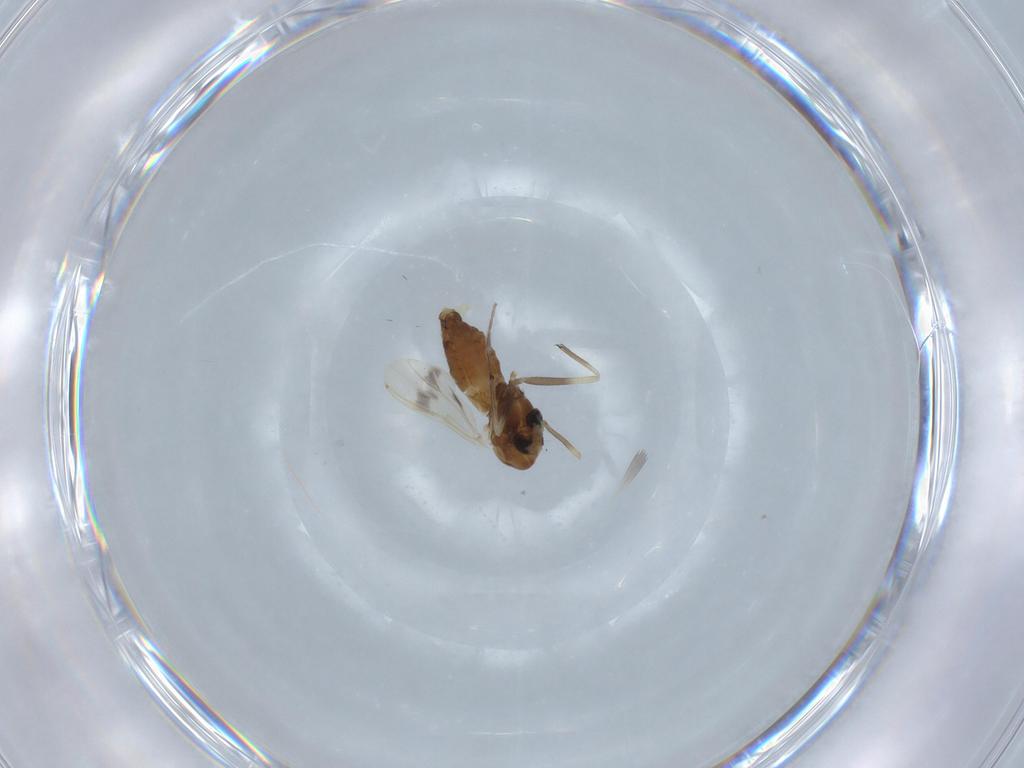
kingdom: Animalia
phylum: Arthropoda
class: Insecta
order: Diptera
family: Chironomidae
